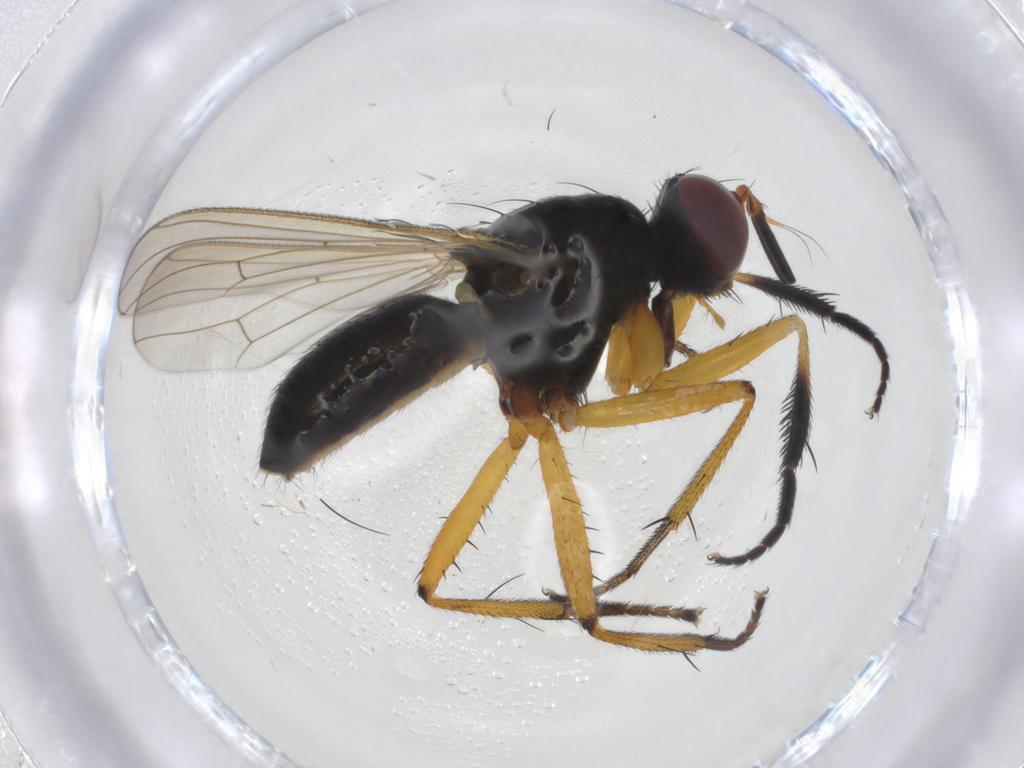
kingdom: Animalia
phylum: Arthropoda
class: Insecta
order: Diptera
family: Muscidae
